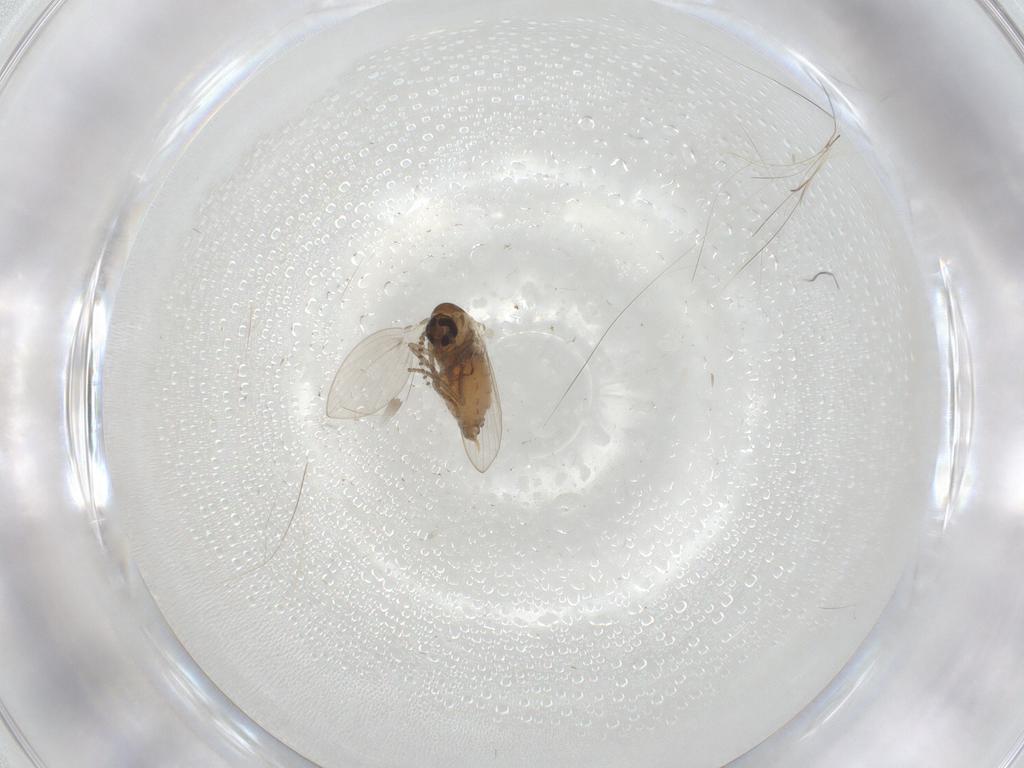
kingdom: Animalia
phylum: Arthropoda
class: Insecta
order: Diptera
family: Psychodidae
